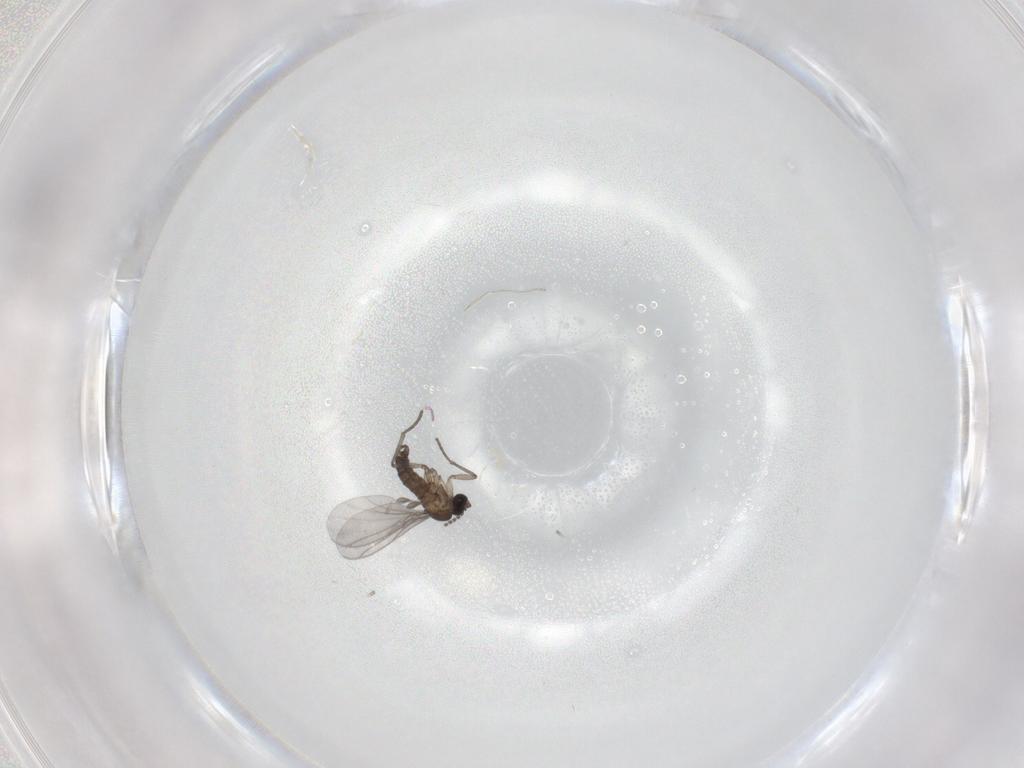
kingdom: Animalia
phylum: Arthropoda
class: Insecta
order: Diptera
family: Sciaridae
